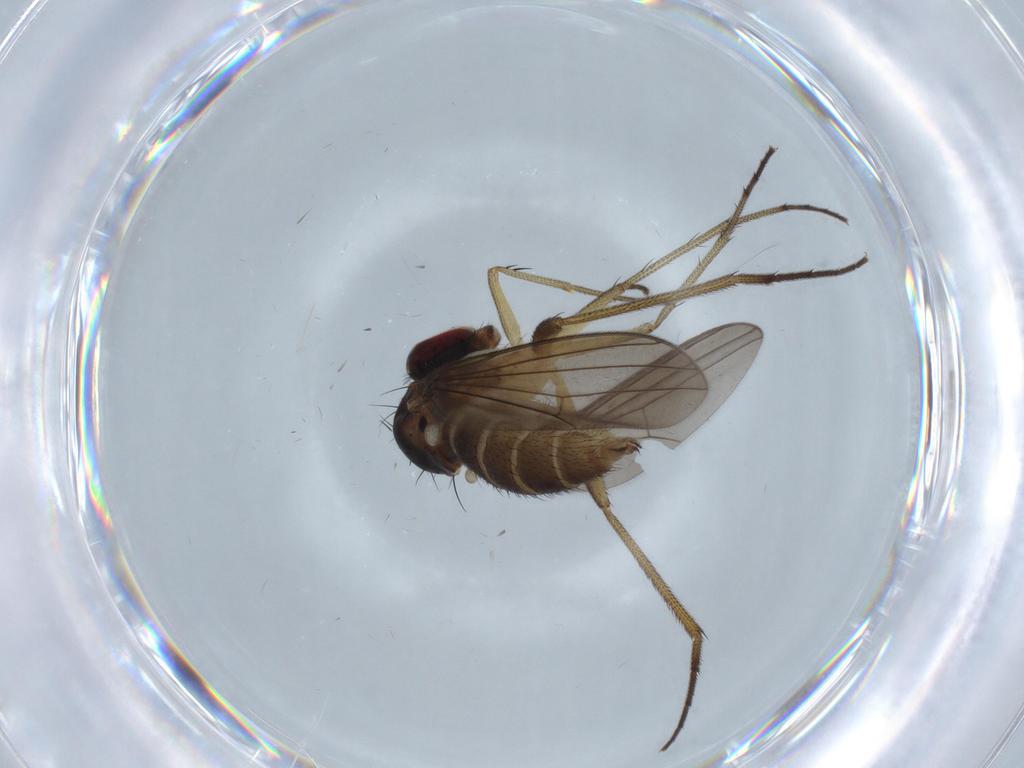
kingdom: Animalia
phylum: Arthropoda
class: Insecta
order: Diptera
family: Dolichopodidae
